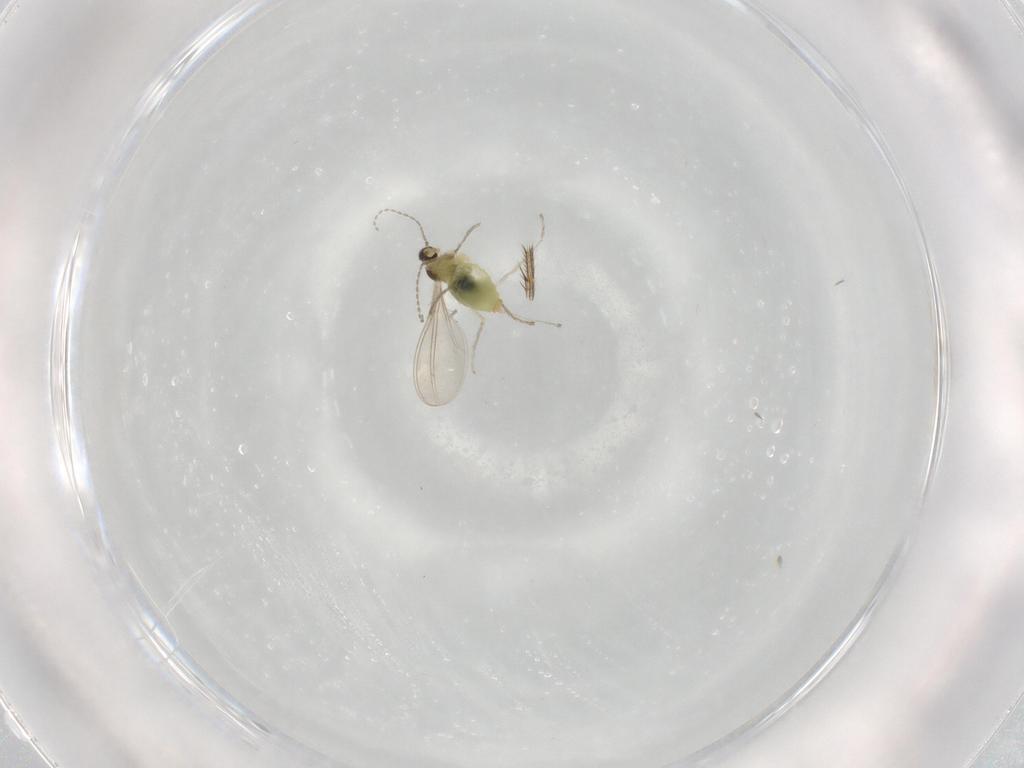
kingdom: Animalia
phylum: Arthropoda
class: Insecta
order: Diptera
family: Mycetophilidae
